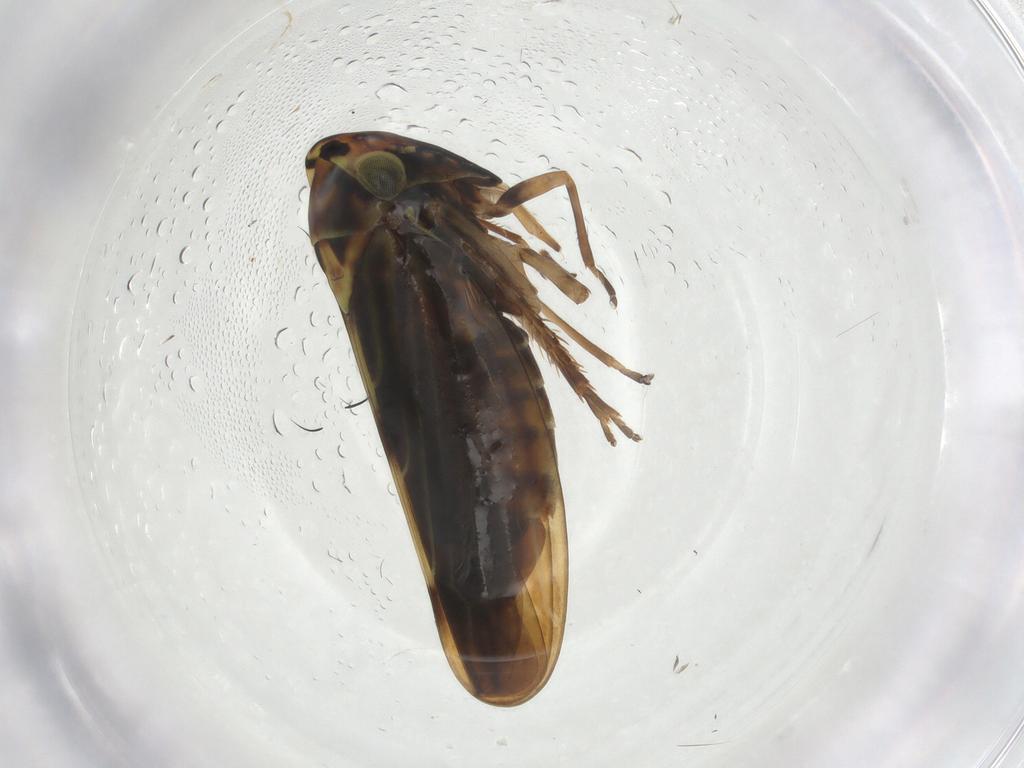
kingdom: Animalia
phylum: Arthropoda
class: Insecta
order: Hemiptera
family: Cicadellidae
